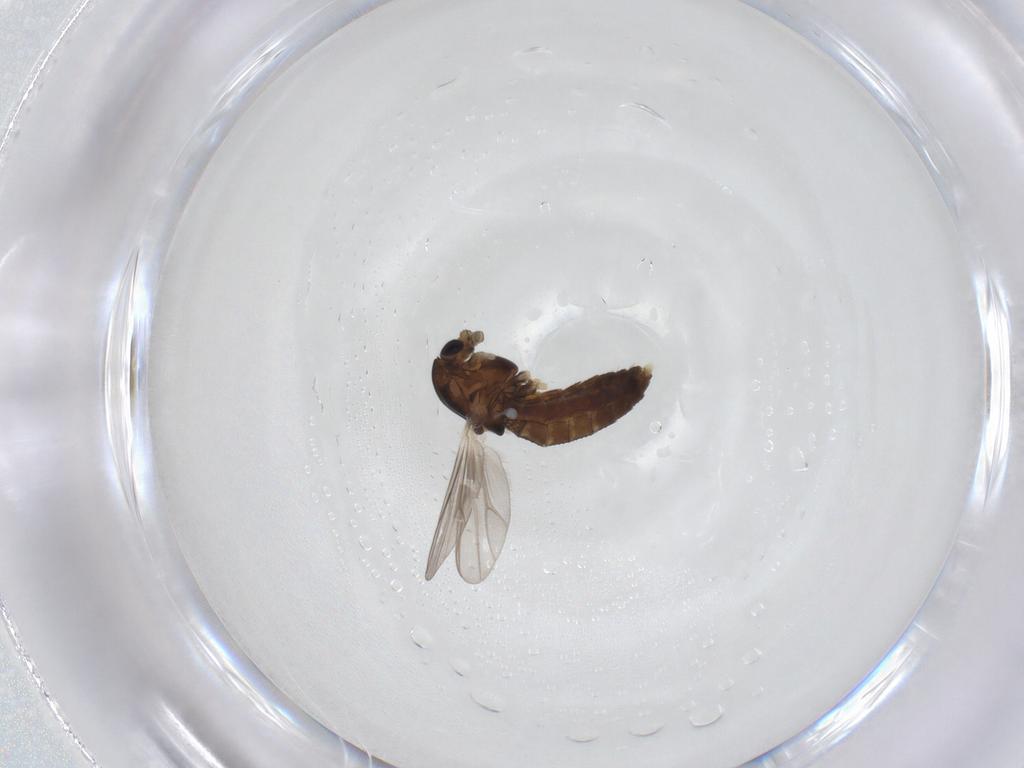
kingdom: Animalia
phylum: Arthropoda
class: Insecta
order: Diptera
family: Chironomidae
